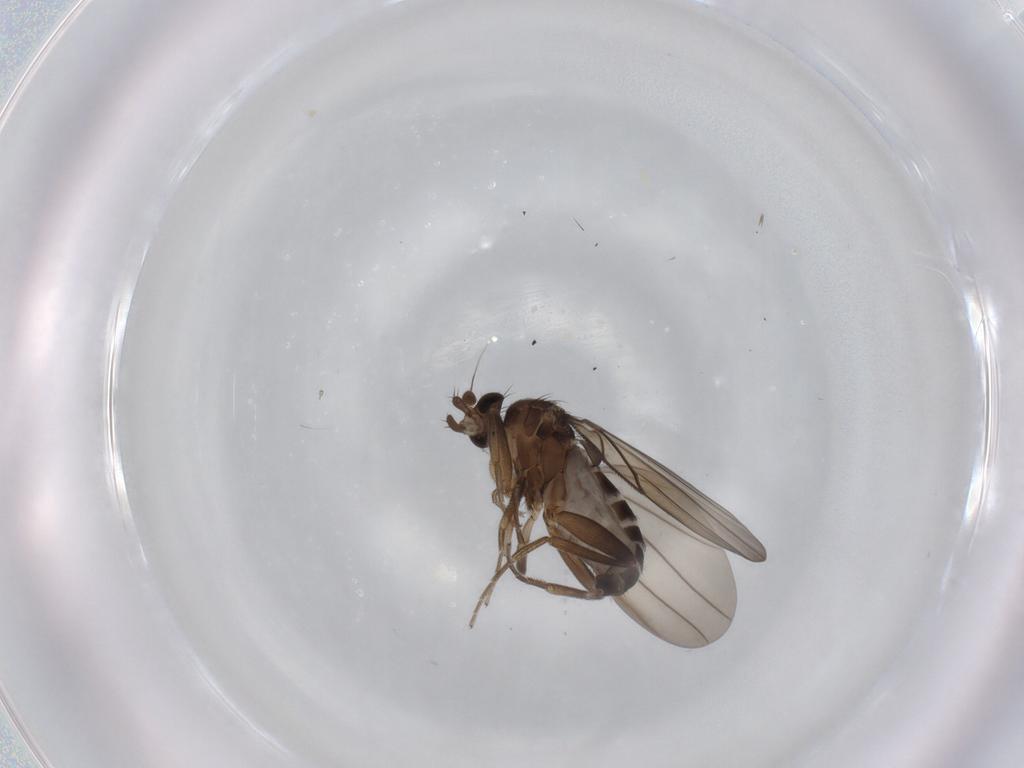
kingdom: Animalia
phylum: Arthropoda
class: Insecta
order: Diptera
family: Phoridae
